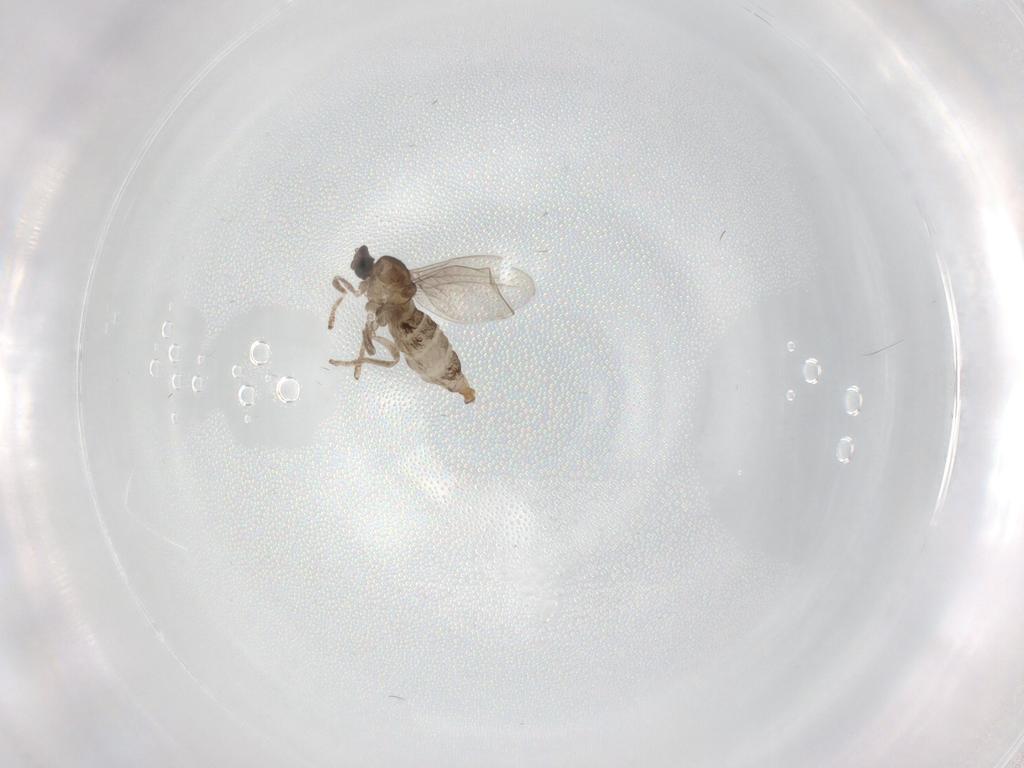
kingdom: Animalia
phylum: Arthropoda
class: Insecta
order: Diptera
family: Cecidomyiidae
